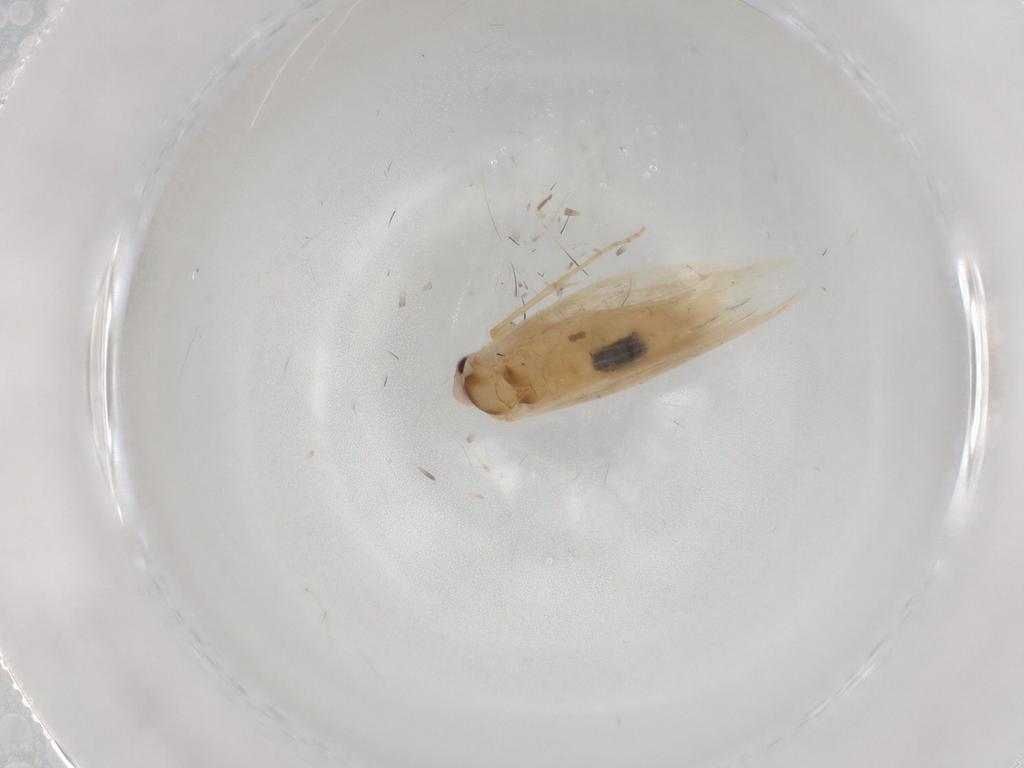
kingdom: Animalia
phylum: Arthropoda
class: Insecta
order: Lepidoptera
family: Bucculatricidae
